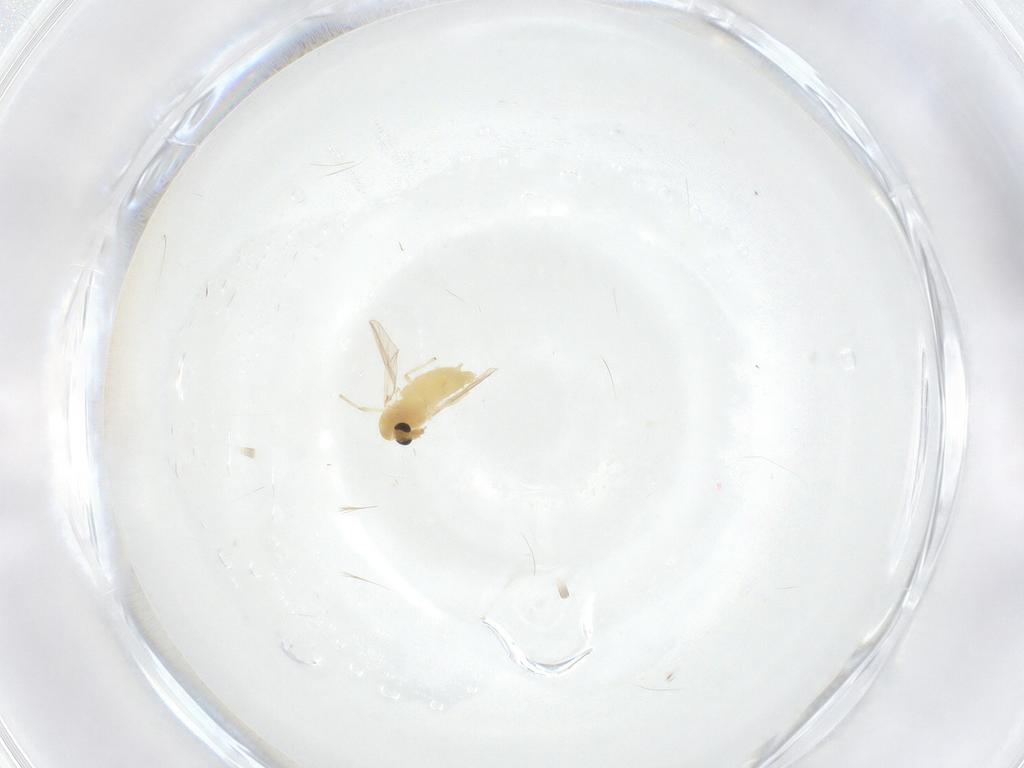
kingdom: Animalia
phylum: Arthropoda
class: Insecta
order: Diptera
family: Chironomidae
